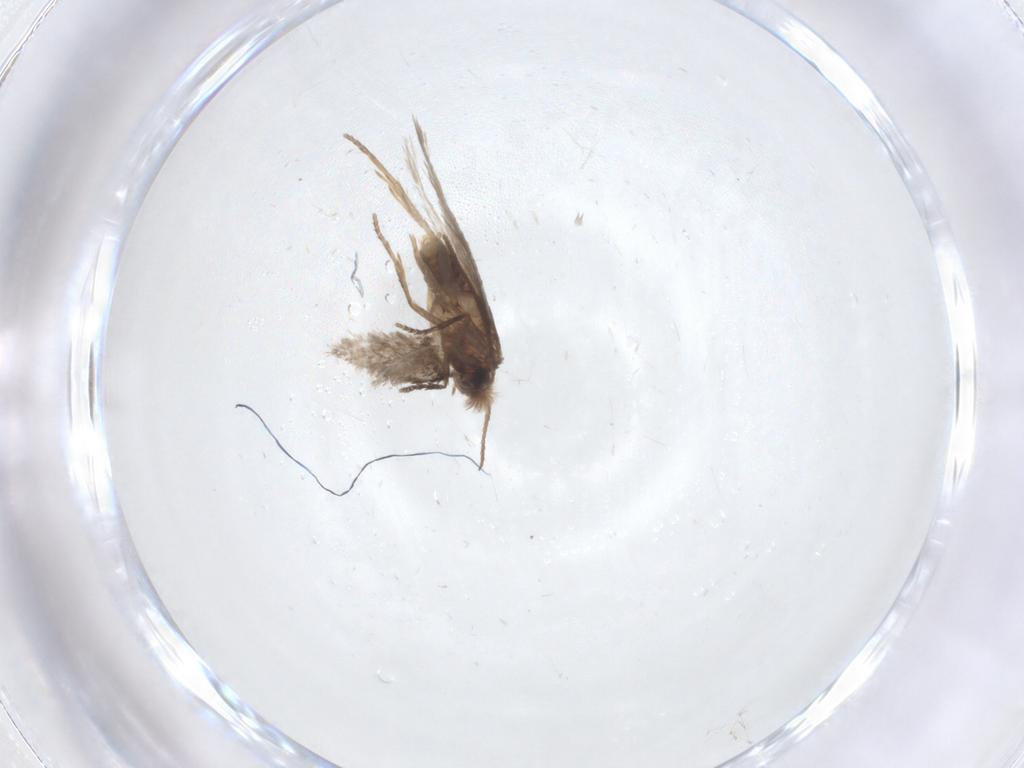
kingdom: Animalia
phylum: Arthropoda
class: Insecta
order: Lepidoptera
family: Nepticulidae
